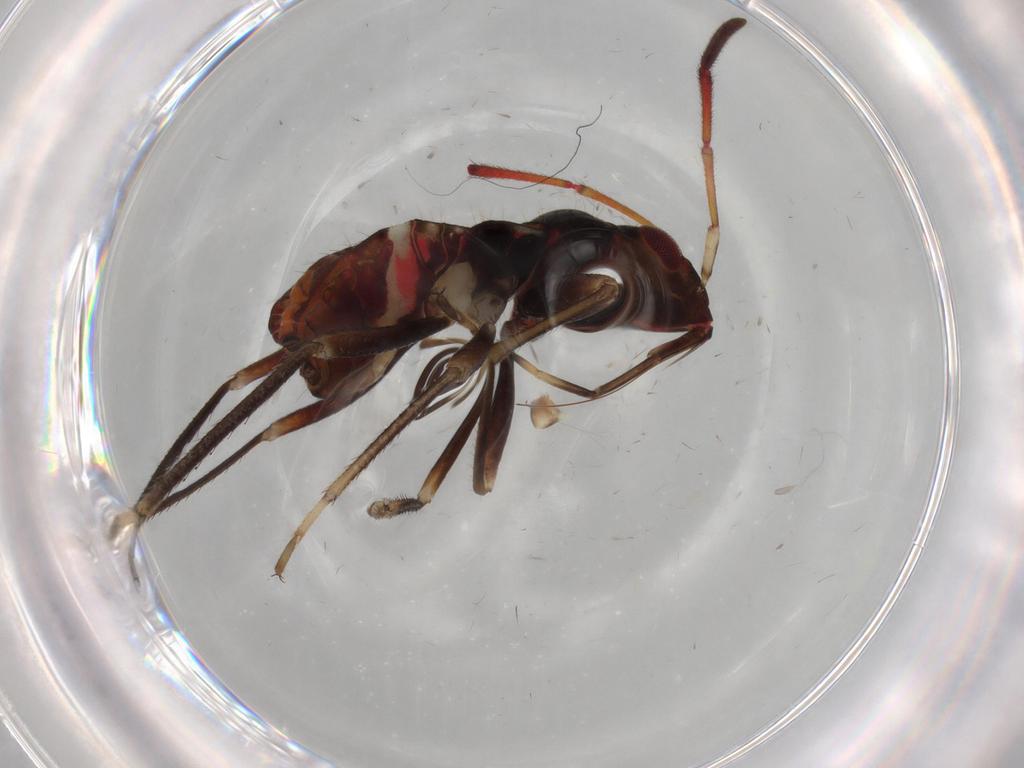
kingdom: Animalia
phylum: Arthropoda
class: Insecta
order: Hemiptera
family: Rhyparochromidae
